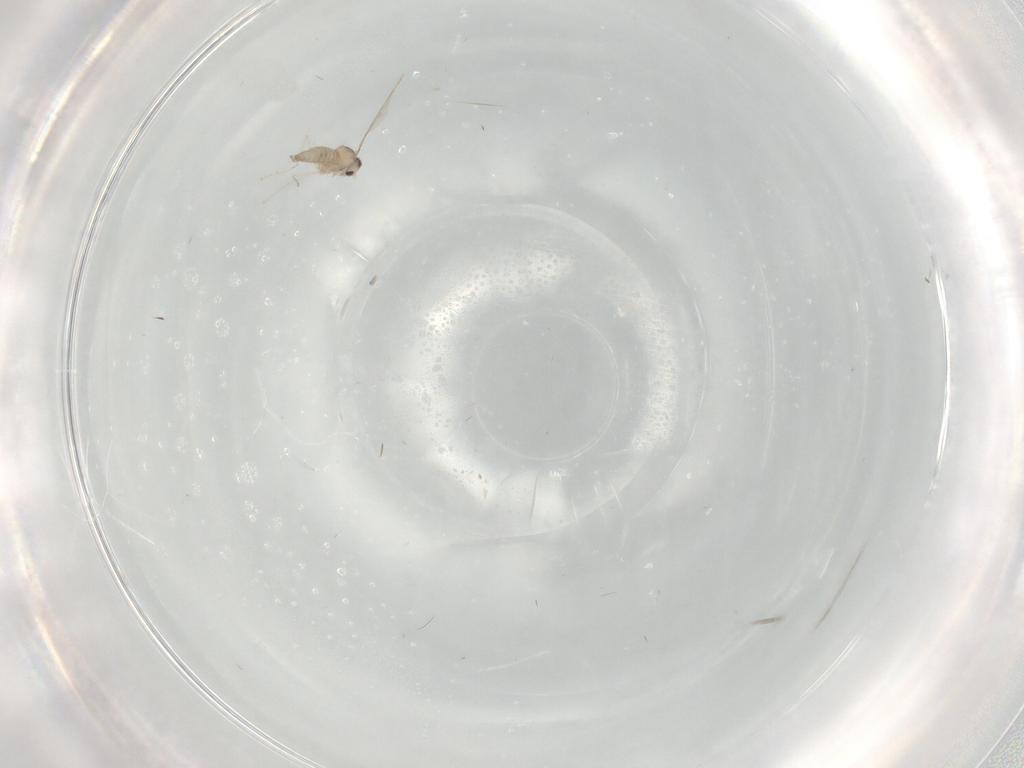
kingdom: Animalia
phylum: Arthropoda
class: Insecta
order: Diptera
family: Cecidomyiidae
